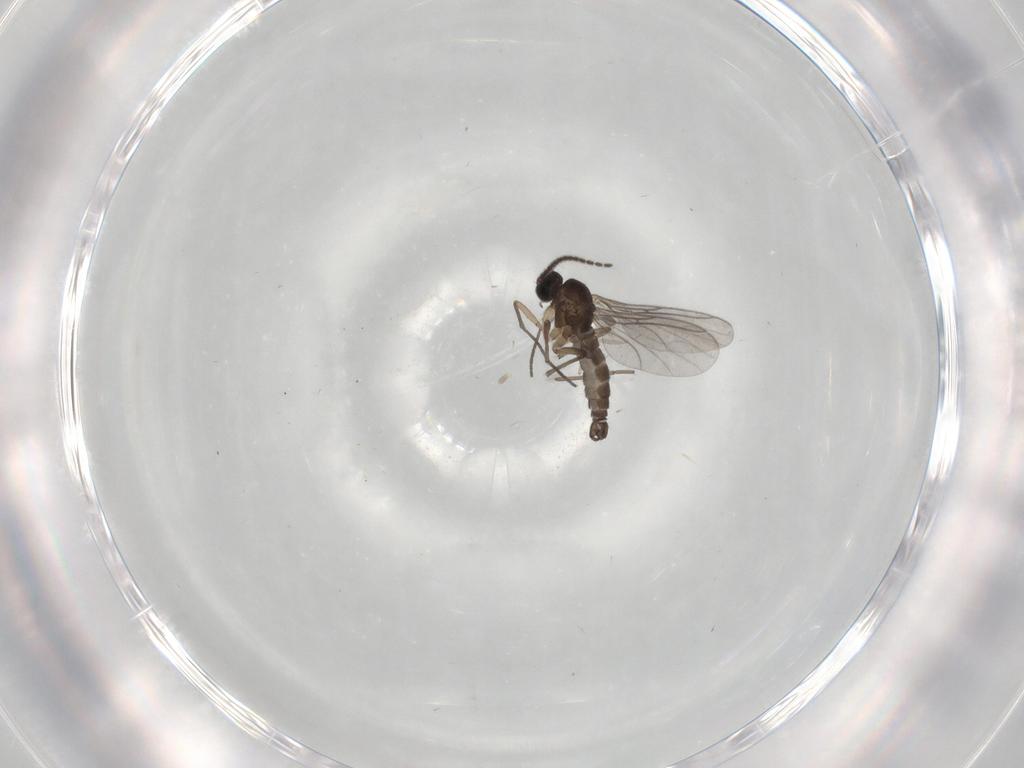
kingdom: Animalia
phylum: Arthropoda
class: Insecta
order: Diptera
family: Sciaridae
